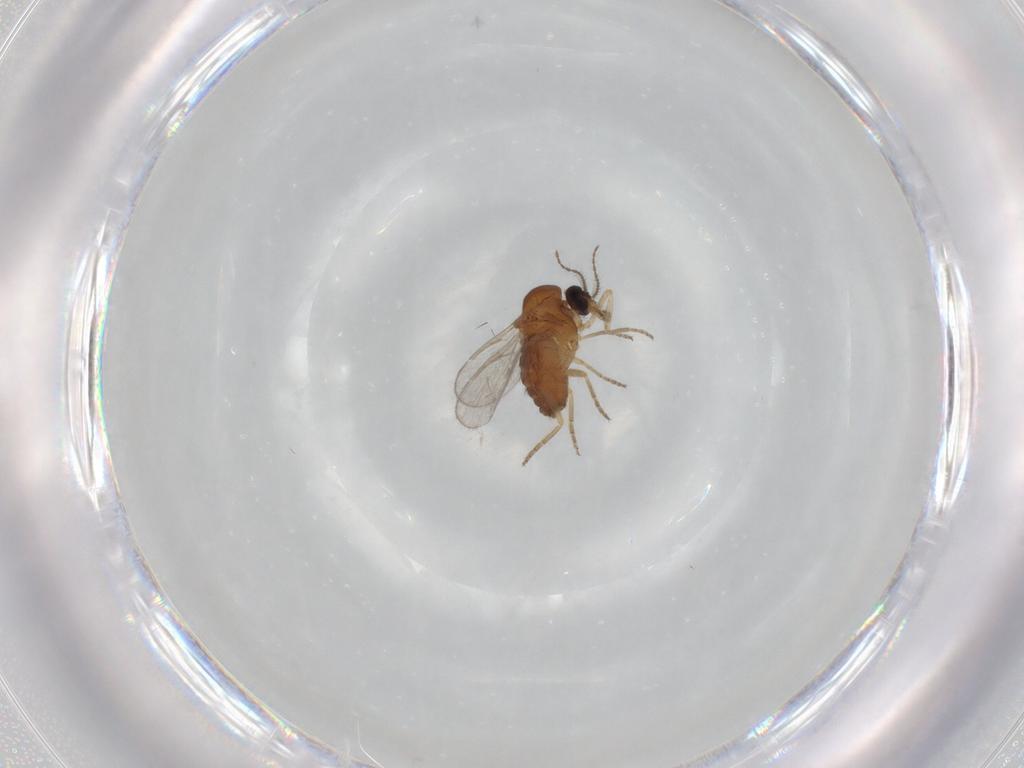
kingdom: Animalia
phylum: Arthropoda
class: Insecta
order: Diptera
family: Ceratopogonidae
